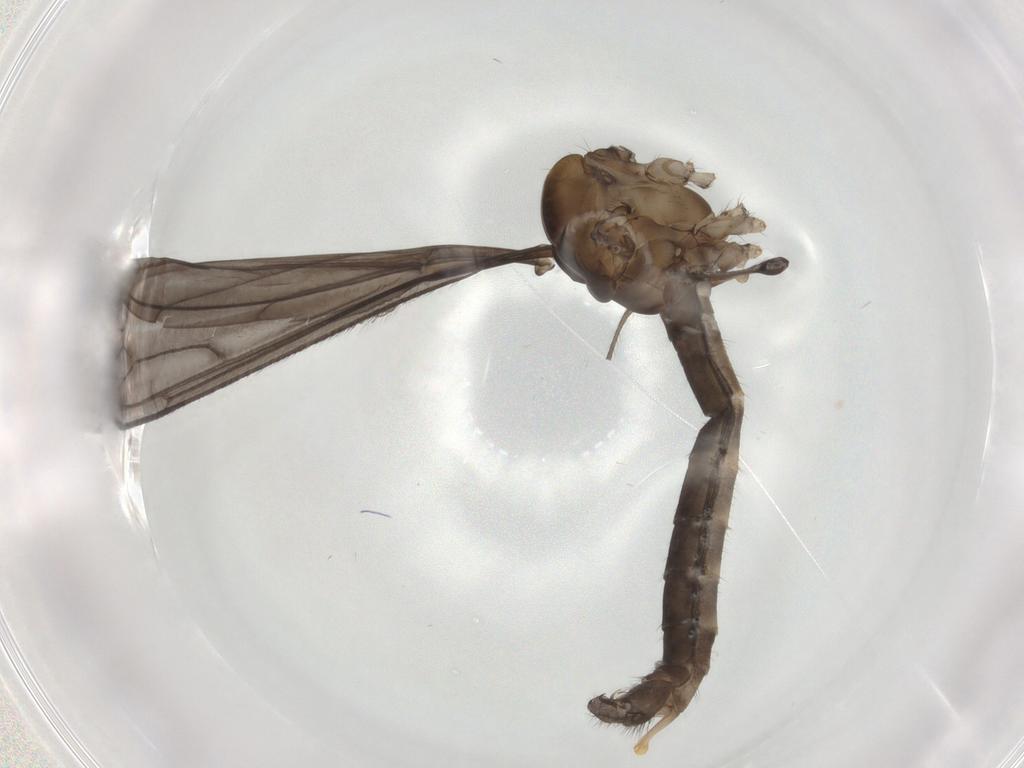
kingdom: Animalia
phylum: Arthropoda
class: Insecta
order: Diptera
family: Limoniidae
